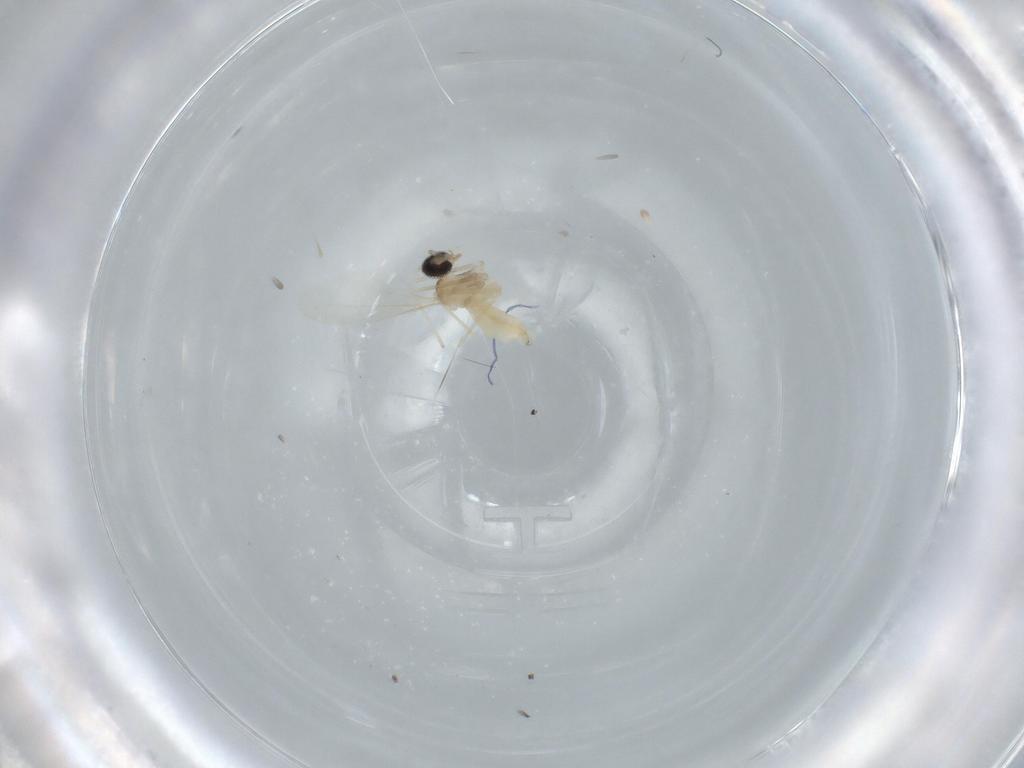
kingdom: Animalia
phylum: Arthropoda
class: Insecta
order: Diptera
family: Cecidomyiidae
